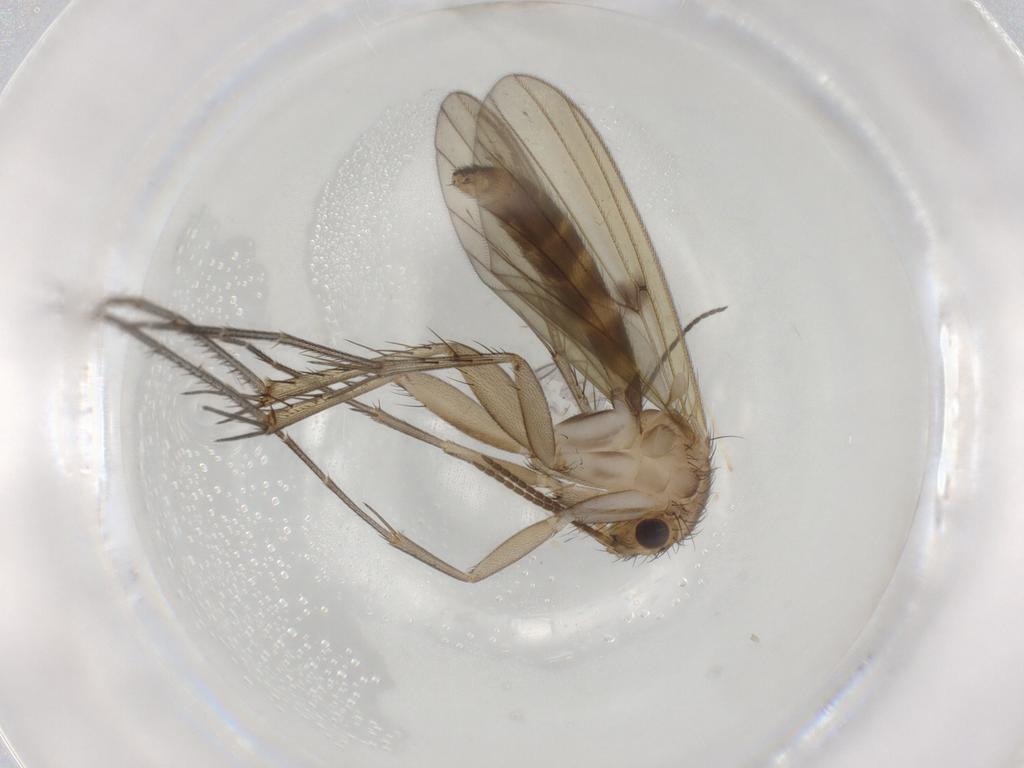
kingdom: Animalia
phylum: Arthropoda
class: Insecta
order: Diptera
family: Mycetophilidae
